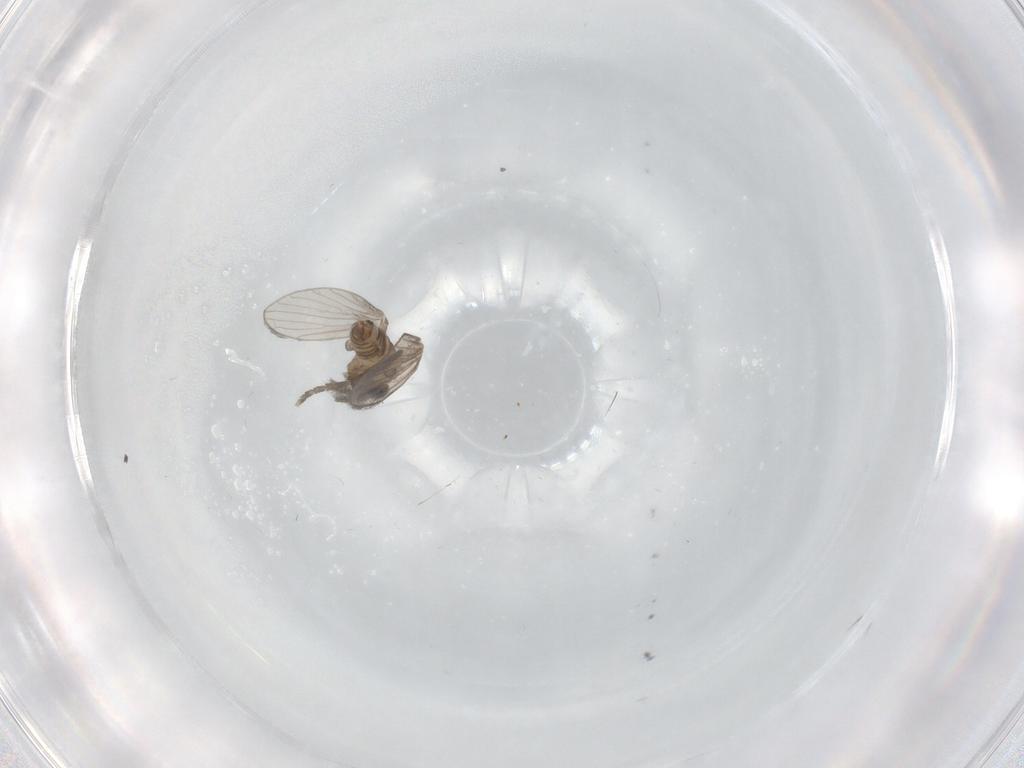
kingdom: Animalia
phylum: Arthropoda
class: Insecta
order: Diptera
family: Psychodidae
